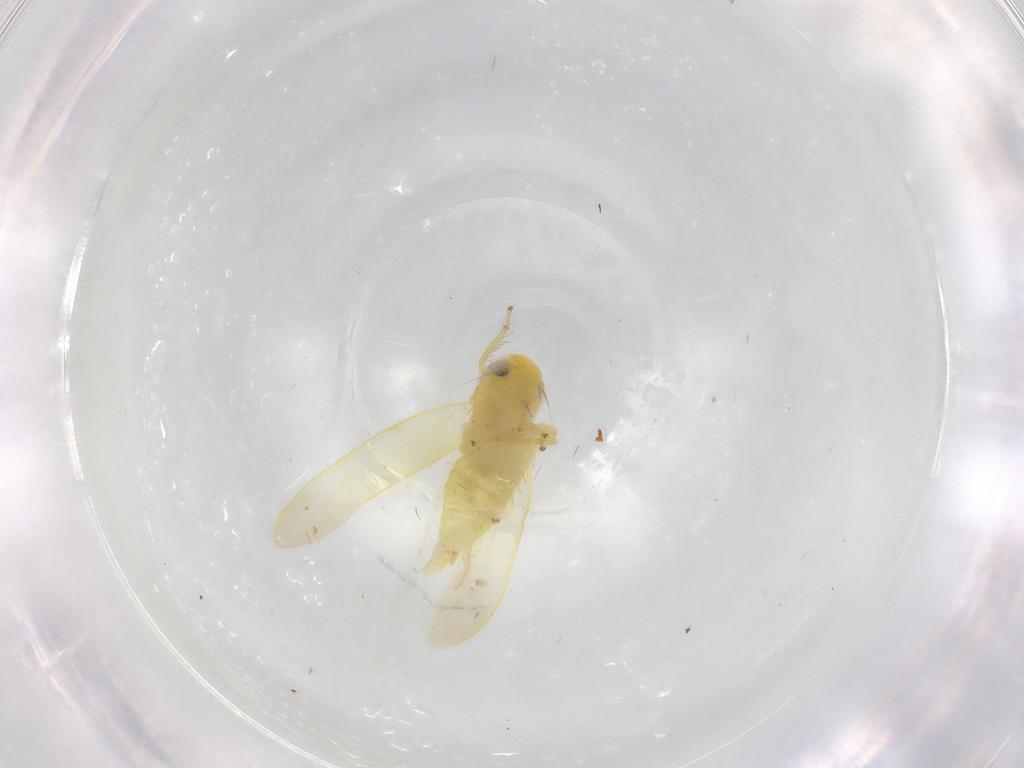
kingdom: Animalia
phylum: Arthropoda
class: Insecta
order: Hemiptera
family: Cicadellidae
